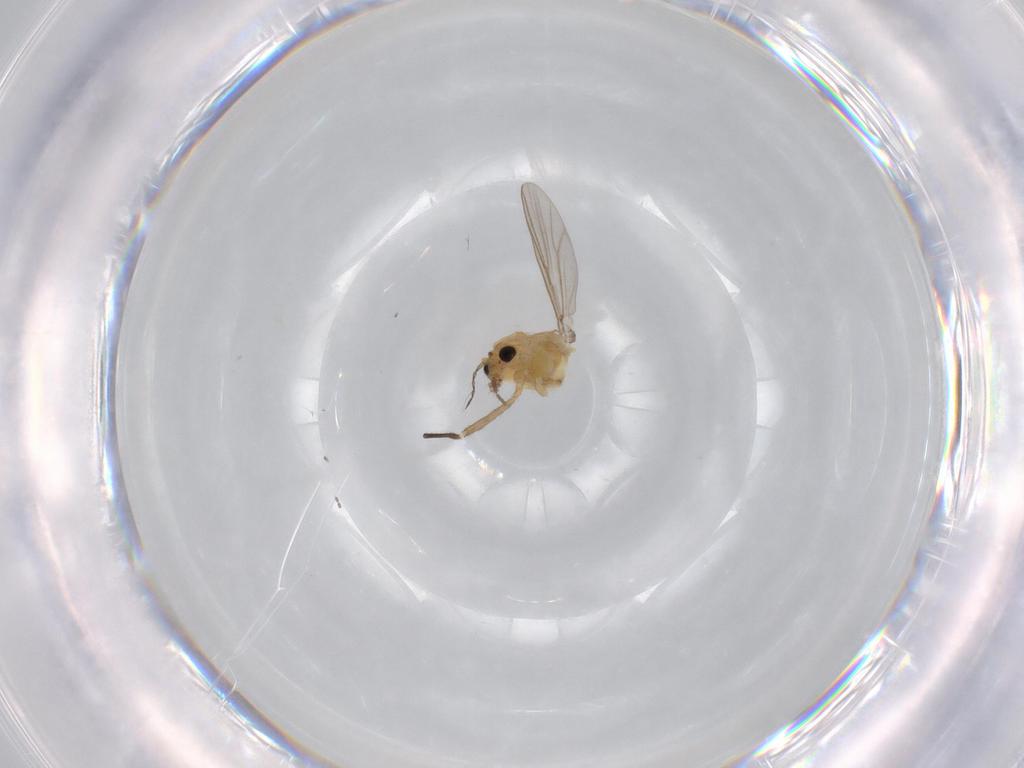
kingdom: Animalia
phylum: Arthropoda
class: Insecta
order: Diptera
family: Chironomidae
